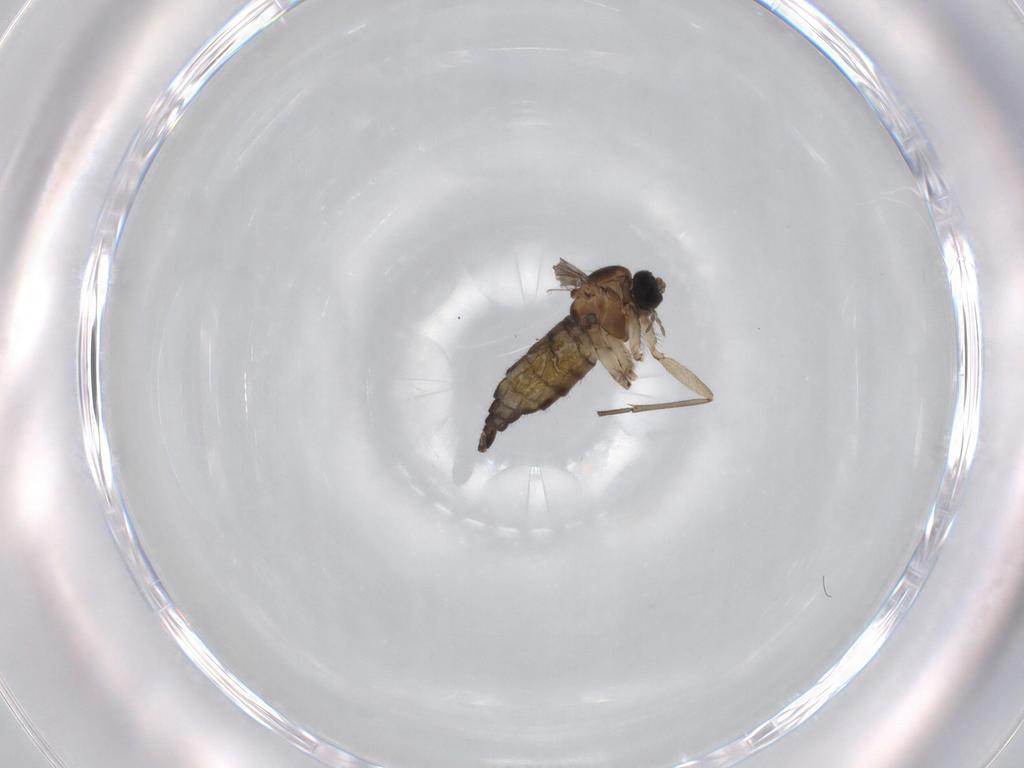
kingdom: Animalia
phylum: Arthropoda
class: Insecta
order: Diptera
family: Sciaridae
